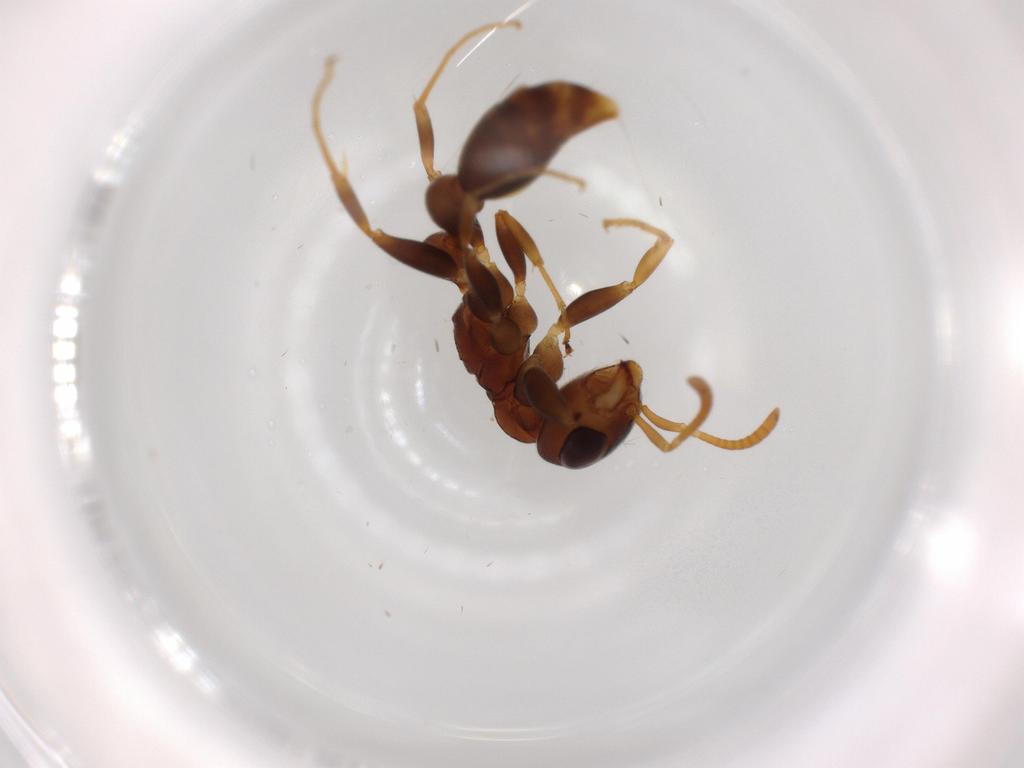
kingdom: Animalia
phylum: Arthropoda
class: Insecta
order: Hymenoptera
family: Formicidae
